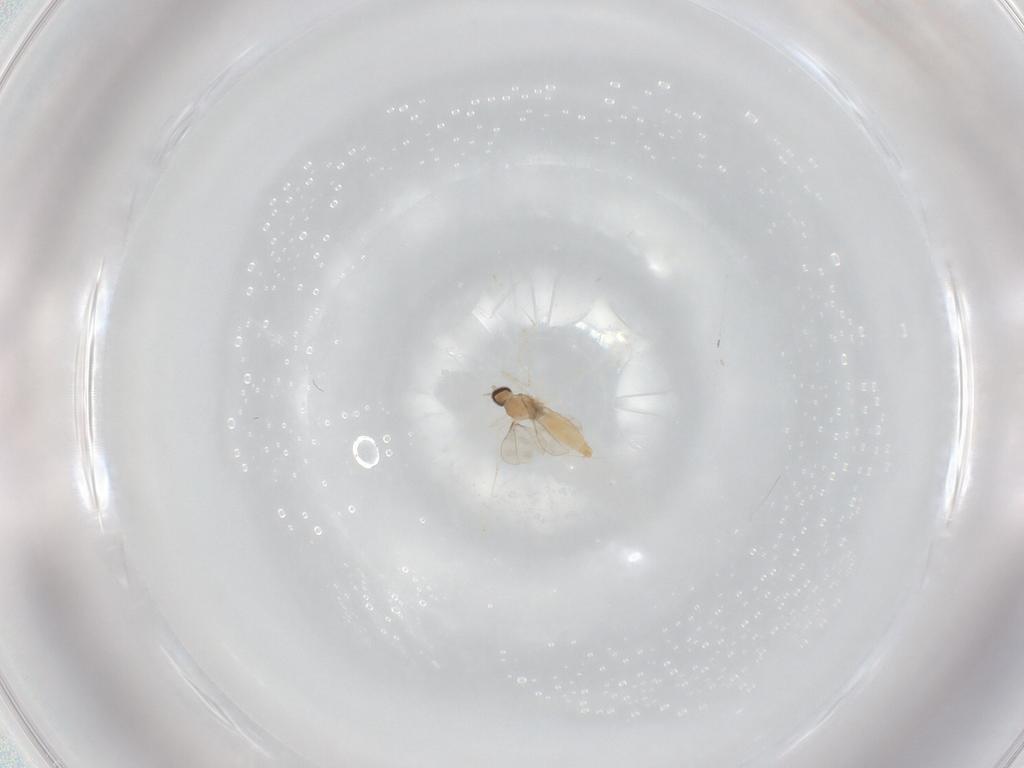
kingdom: Animalia
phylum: Arthropoda
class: Insecta
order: Diptera
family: Cecidomyiidae
